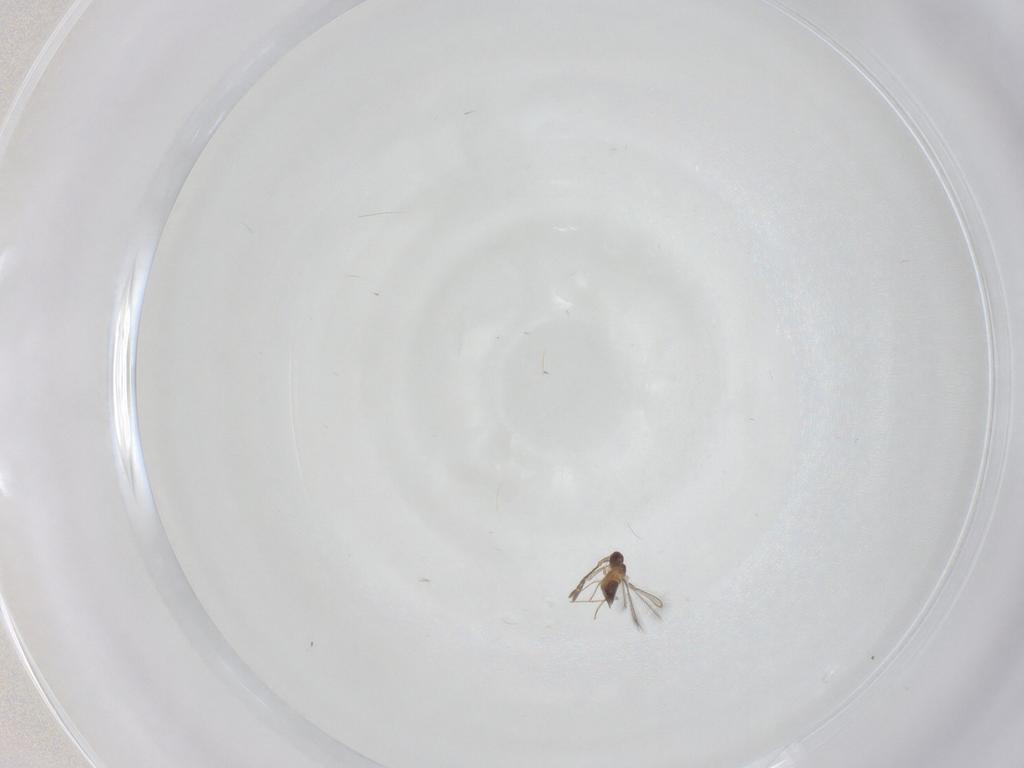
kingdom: Animalia
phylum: Arthropoda
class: Insecta
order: Hymenoptera
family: Mymaridae
